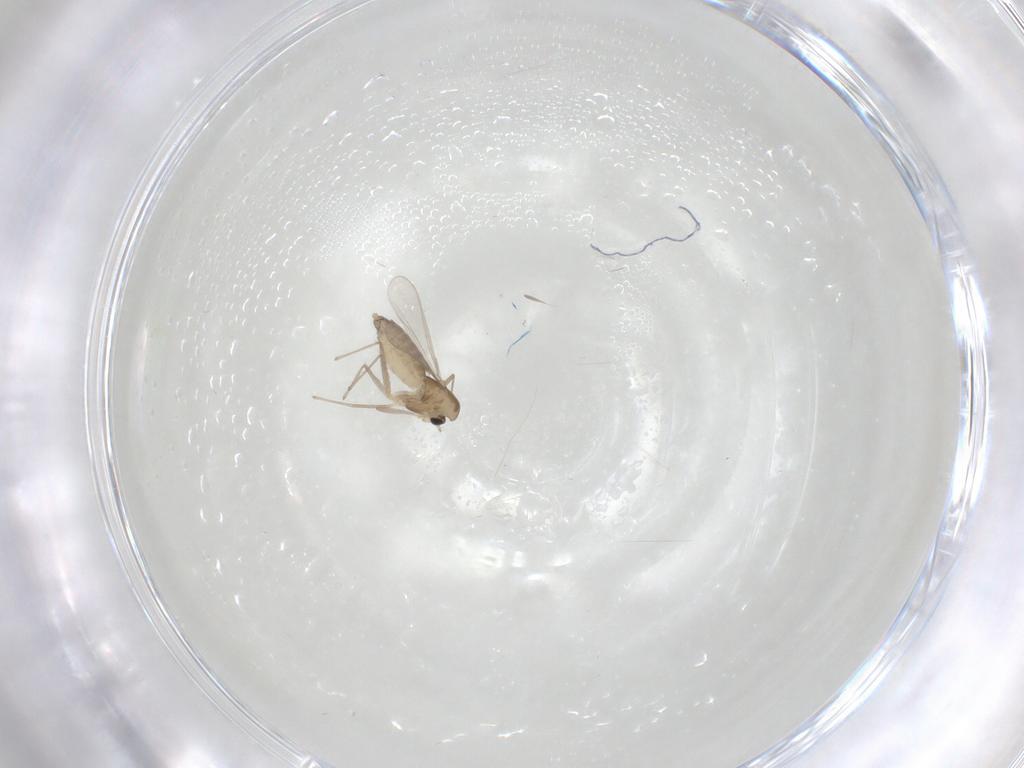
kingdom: Animalia
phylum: Arthropoda
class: Insecta
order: Diptera
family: Chironomidae
